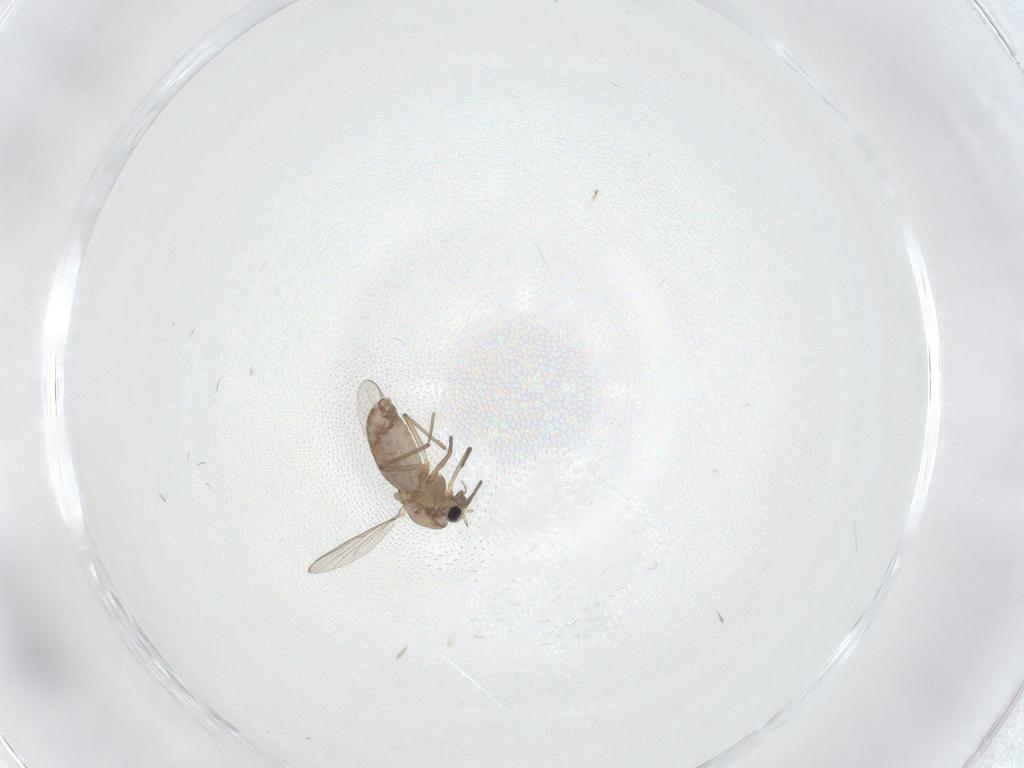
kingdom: Animalia
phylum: Arthropoda
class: Insecta
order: Diptera
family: Chironomidae
